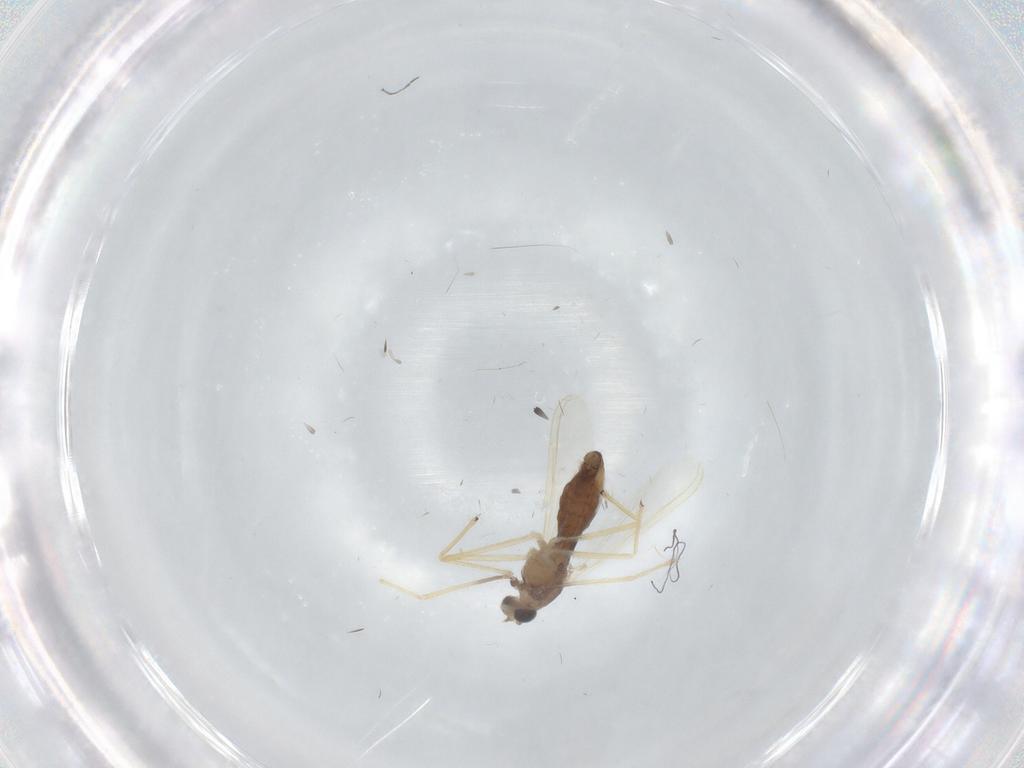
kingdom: Animalia
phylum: Arthropoda
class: Insecta
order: Diptera
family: Chironomidae
